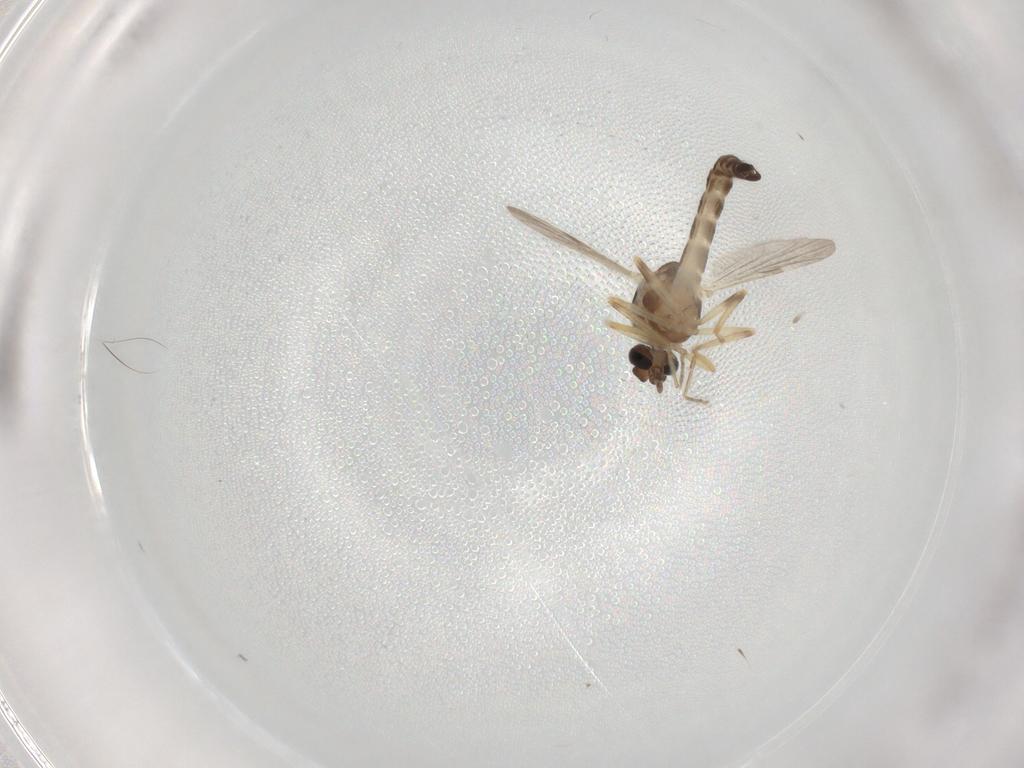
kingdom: Animalia
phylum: Arthropoda
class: Insecta
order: Diptera
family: Ceratopogonidae
